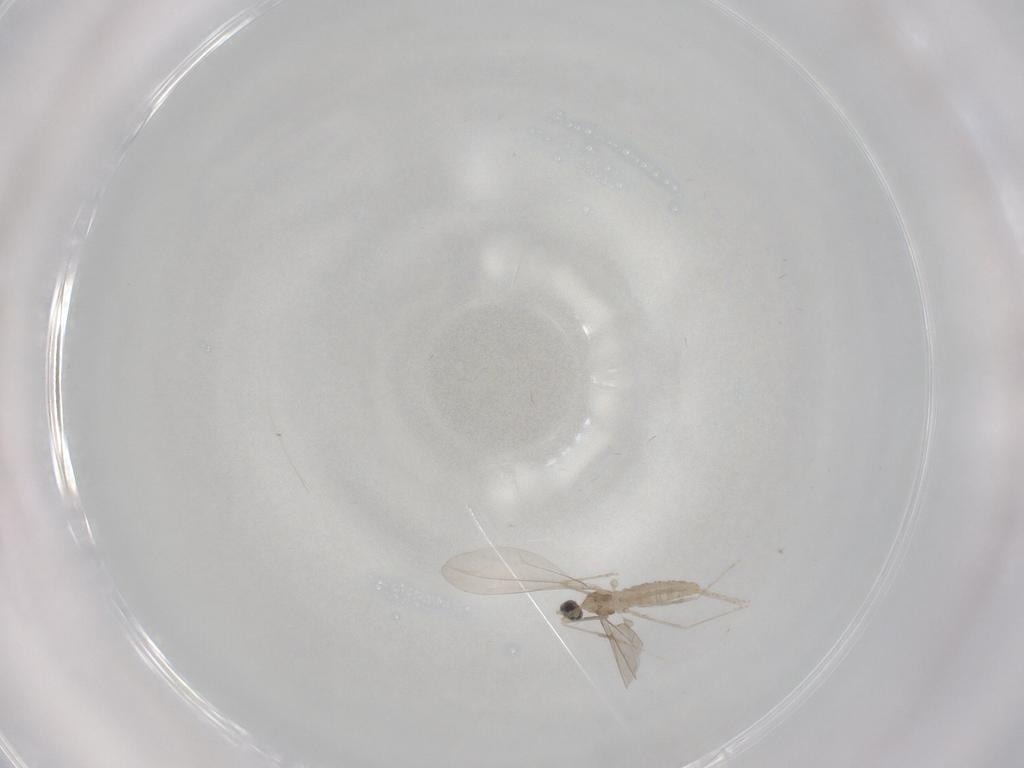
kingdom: Animalia
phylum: Arthropoda
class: Insecta
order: Diptera
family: Cecidomyiidae
